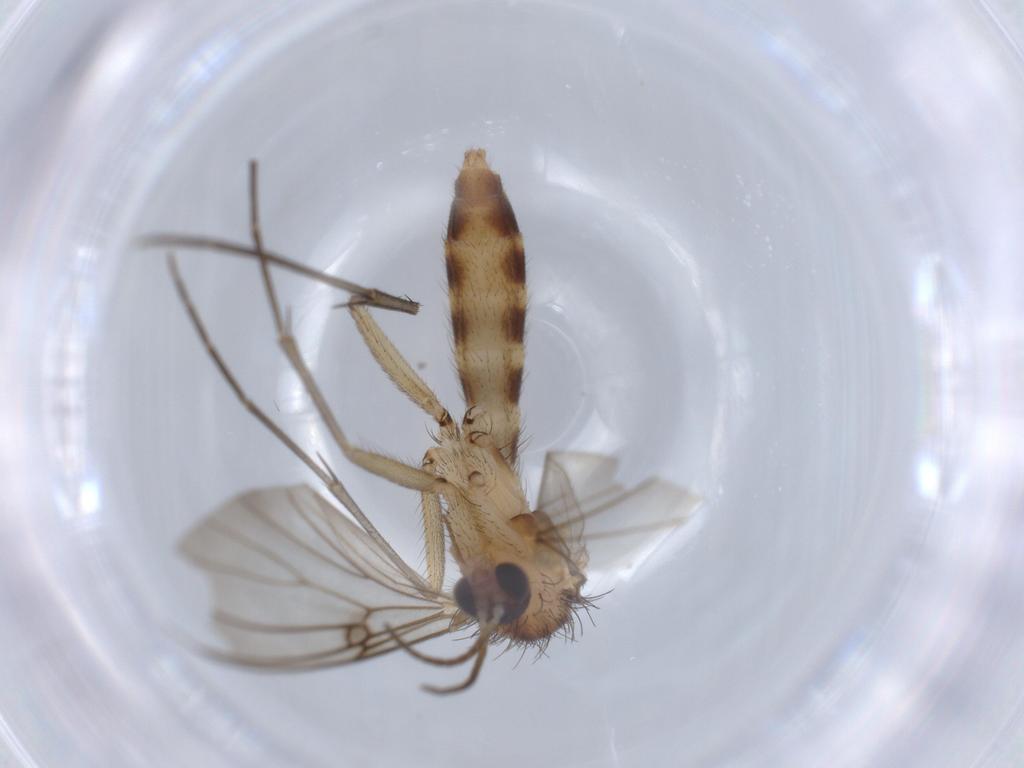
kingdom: Animalia
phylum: Arthropoda
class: Insecta
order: Diptera
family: Mycetophilidae
